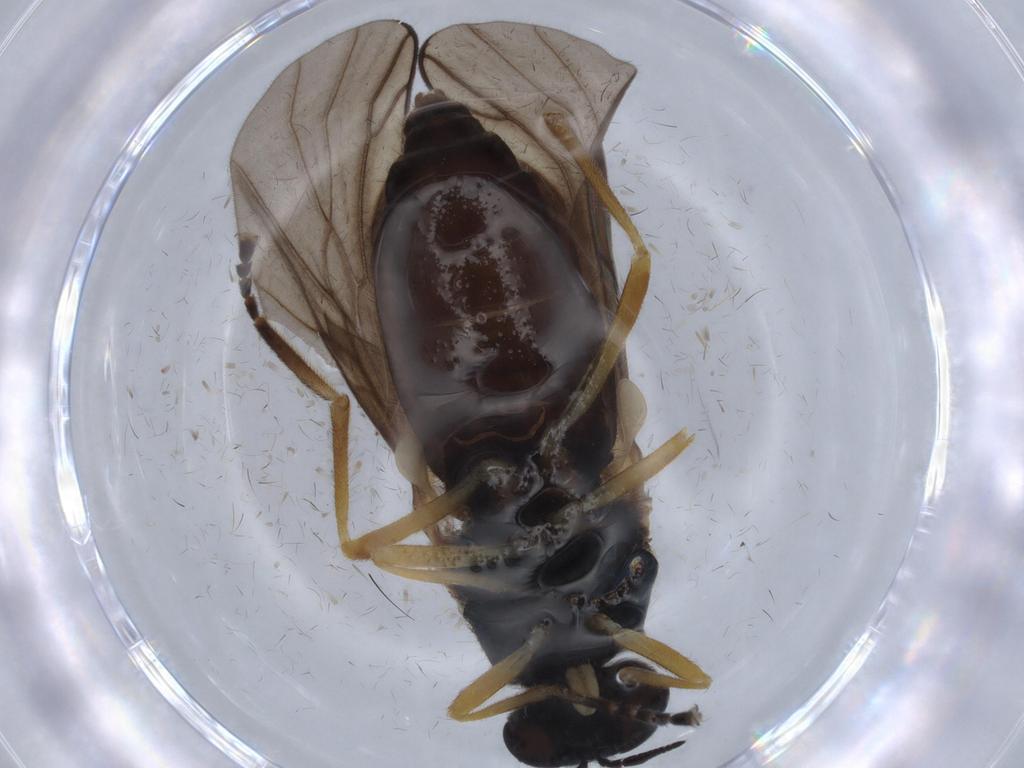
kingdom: Animalia
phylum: Arthropoda
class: Insecta
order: Diptera
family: Stratiomyidae
